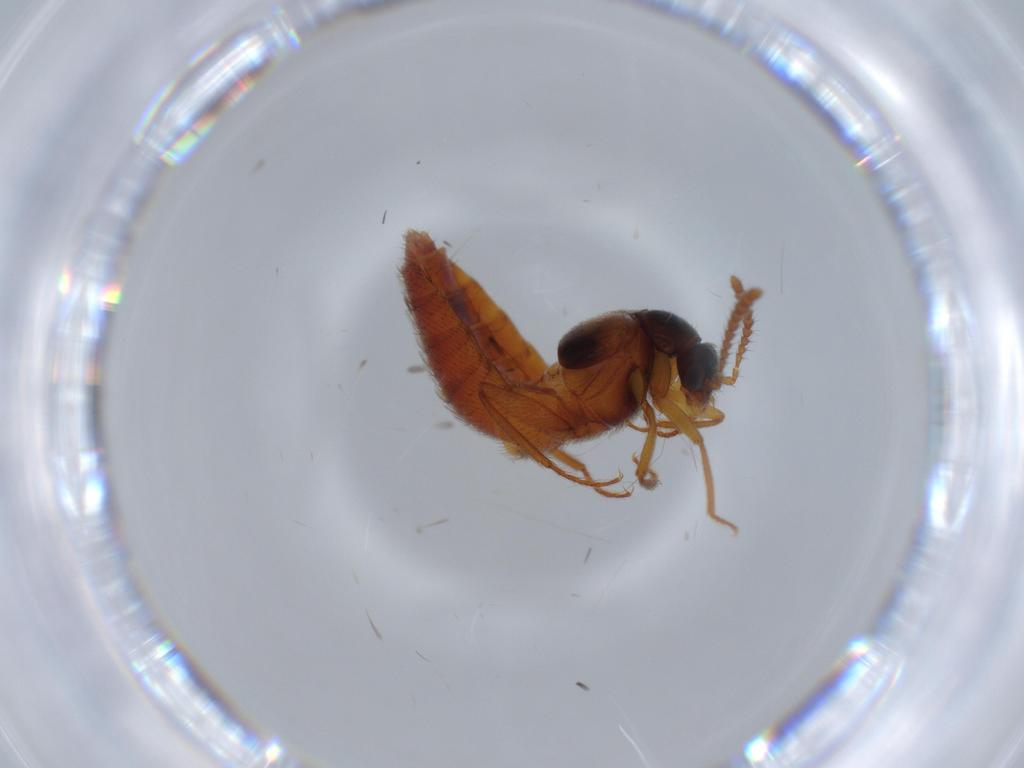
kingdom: Animalia
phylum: Arthropoda
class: Insecta
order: Coleoptera
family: Staphylinidae
